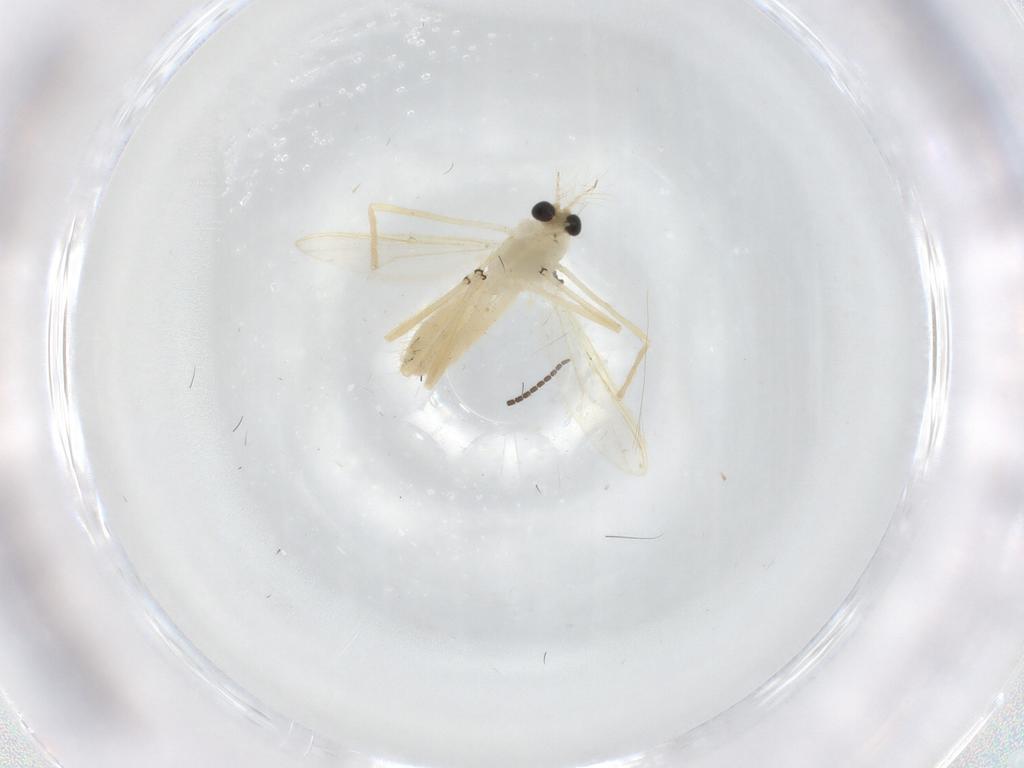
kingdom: Animalia
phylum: Arthropoda
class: Insecta
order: Diptera
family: Chironomidae
